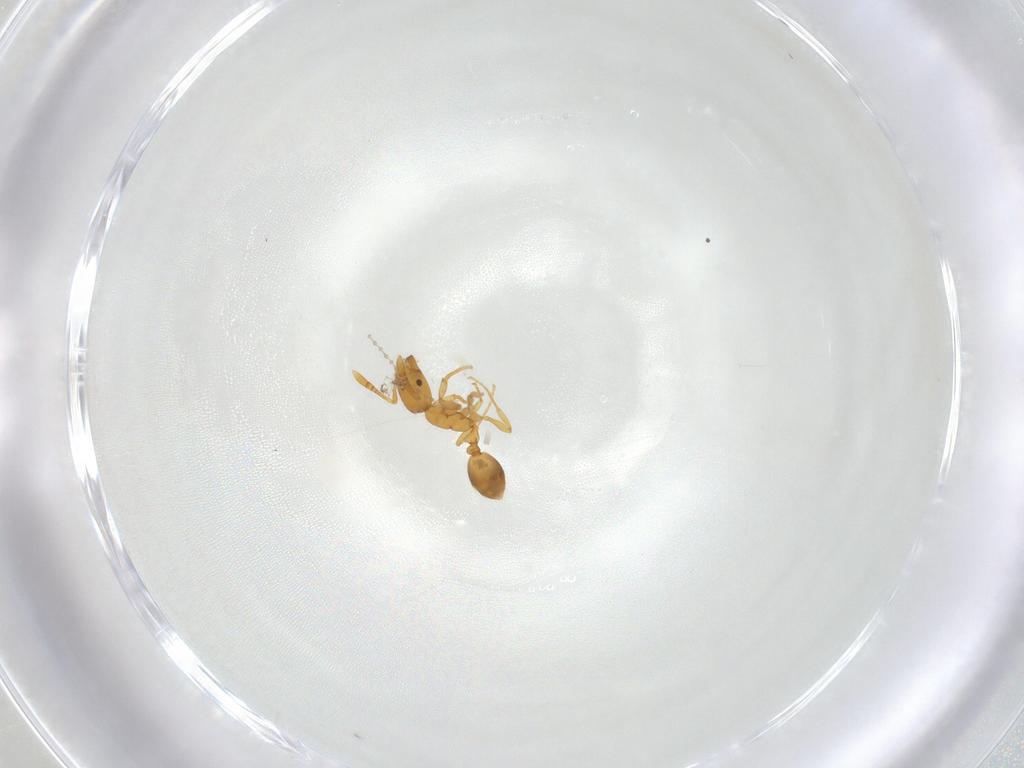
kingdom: Animalia
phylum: Arthropoda
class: Insecta
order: Hymenoptera
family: Formicidae
